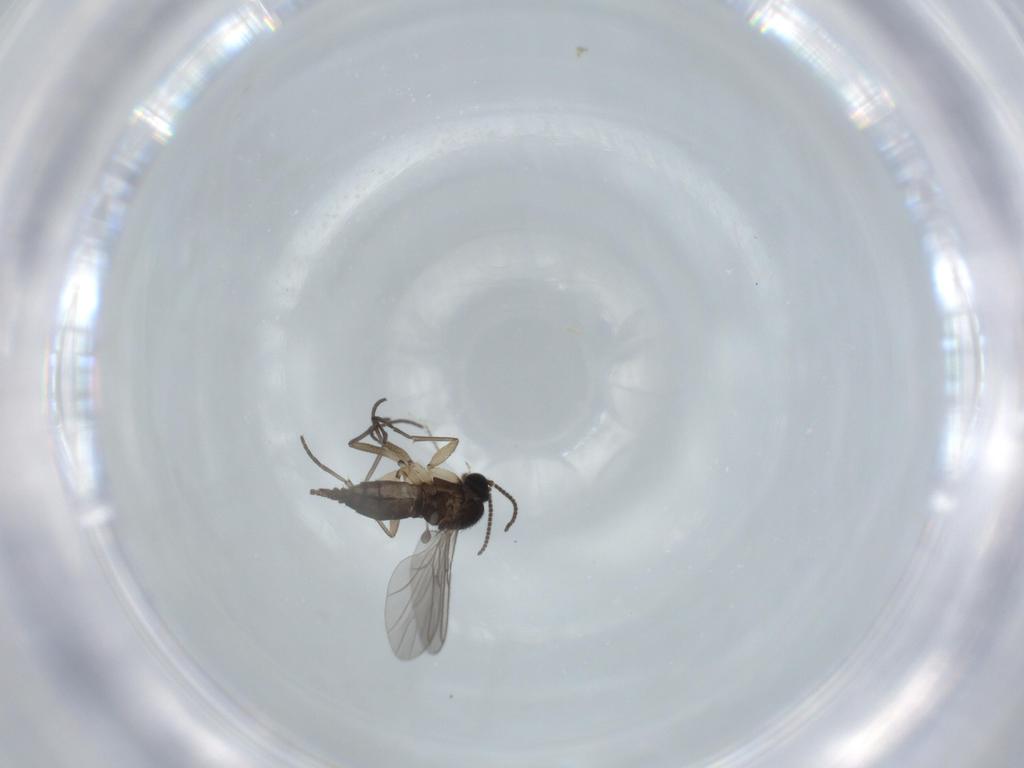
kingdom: Animalia
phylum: Arthropoda
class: Insecta
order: Diptera
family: Sciaridae
